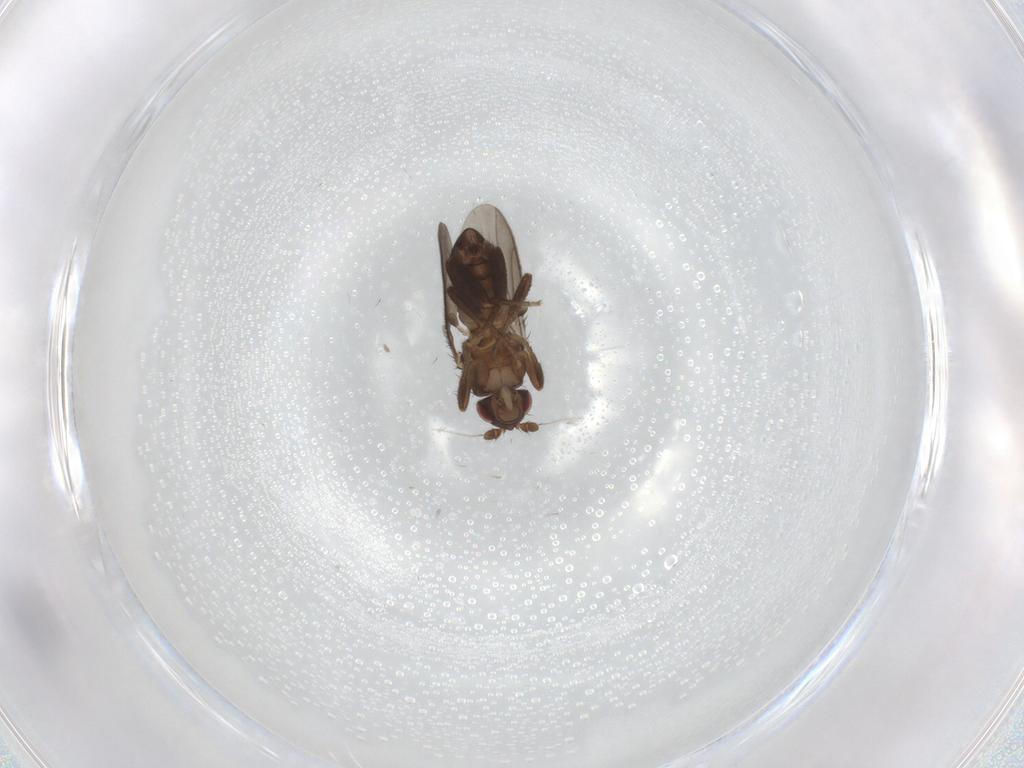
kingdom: Animalia
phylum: Arthropoda
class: Insecta
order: Diptera
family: Sphaeroceridae
